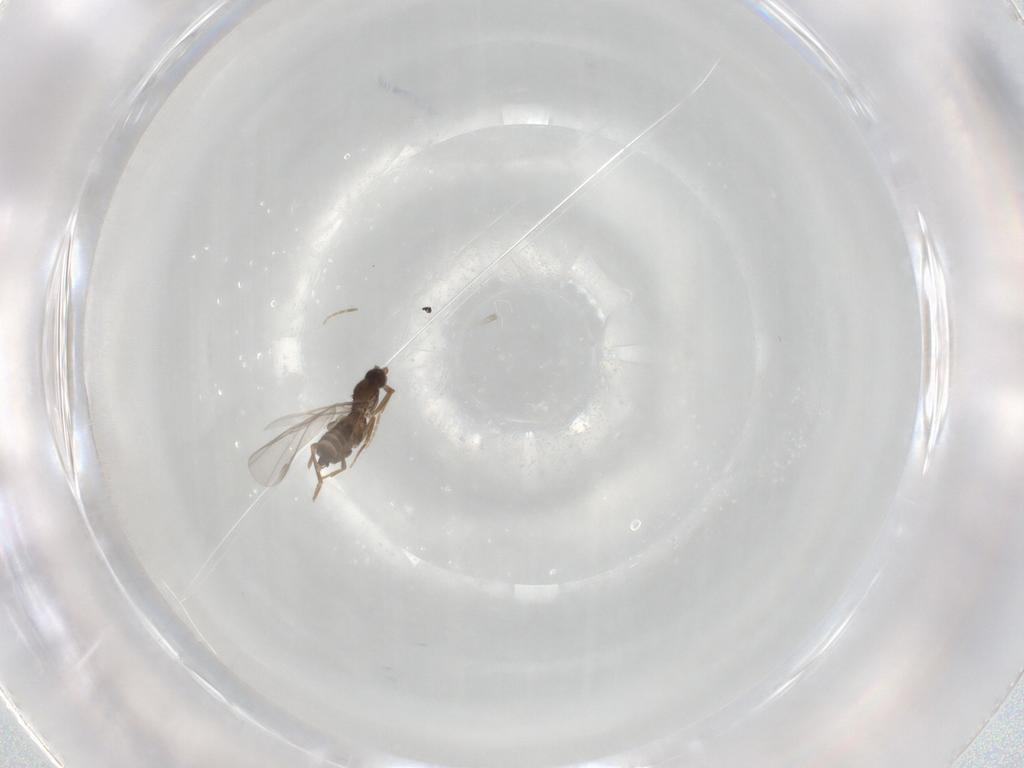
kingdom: Animalia
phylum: Arthropoda
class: Insecta
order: Diptera
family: Phoridae
